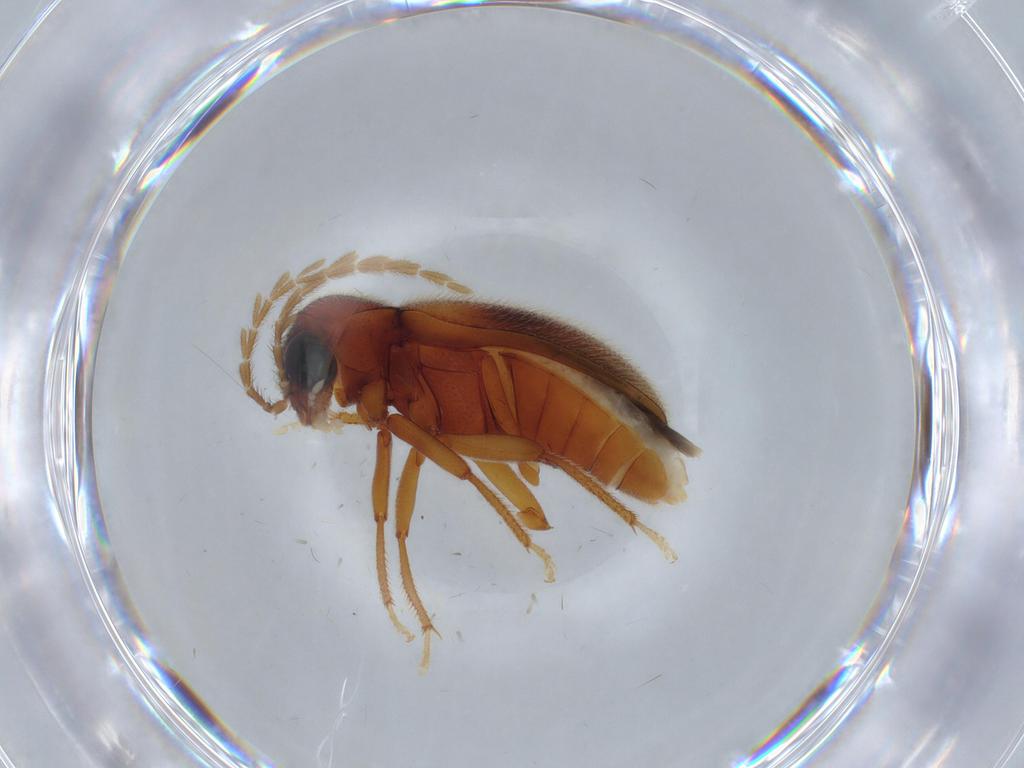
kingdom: Animalia
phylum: Arthropoda
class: Insecta
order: Coleoptera
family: Ptilodactylidae
